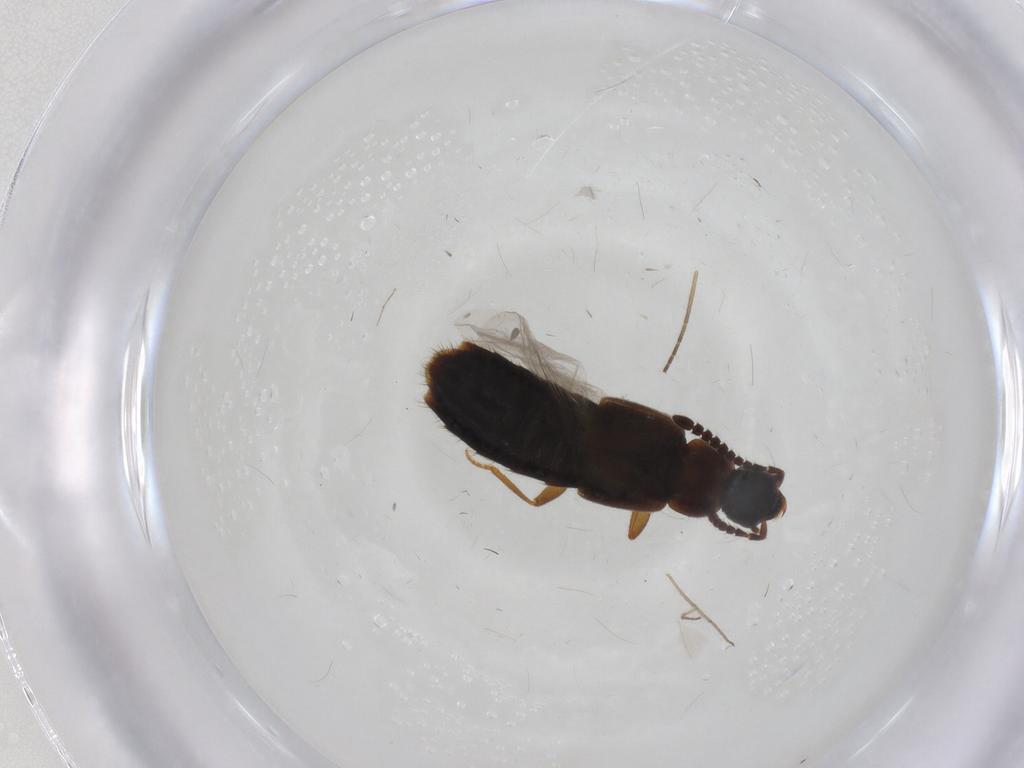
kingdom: Animalia
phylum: Arthropoda
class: Insecta
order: Coleoptera
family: Staphylinidae
